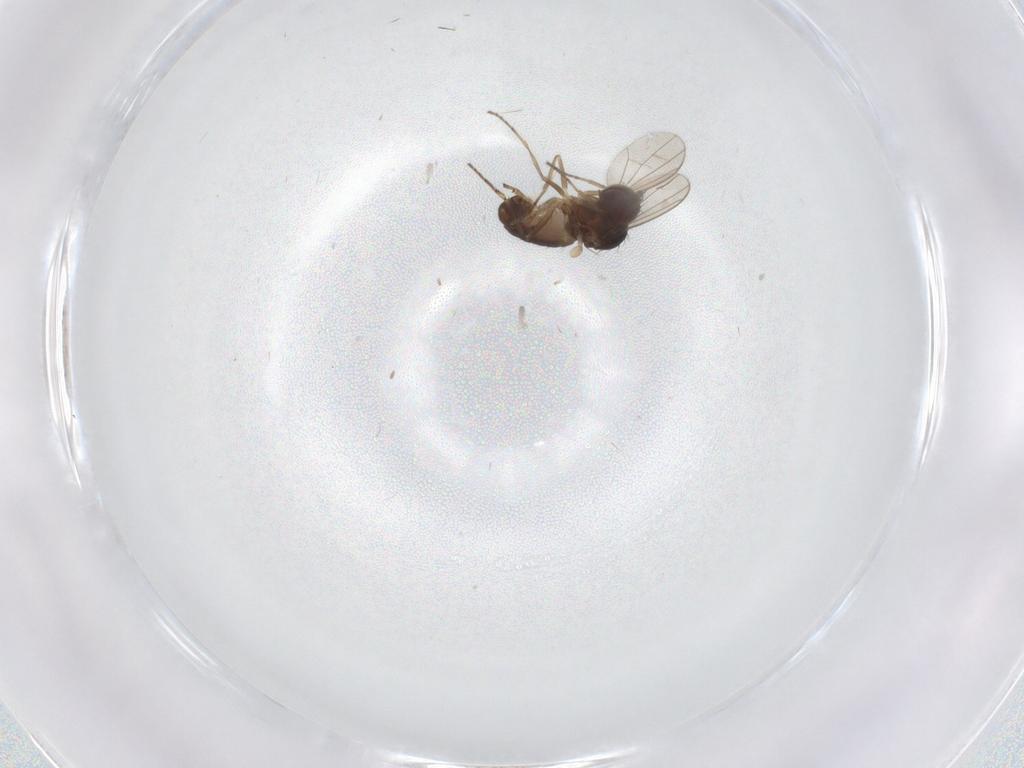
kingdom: Animalia
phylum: Arthropoda
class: Insecta
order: Diptera
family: Dolichopodidae
